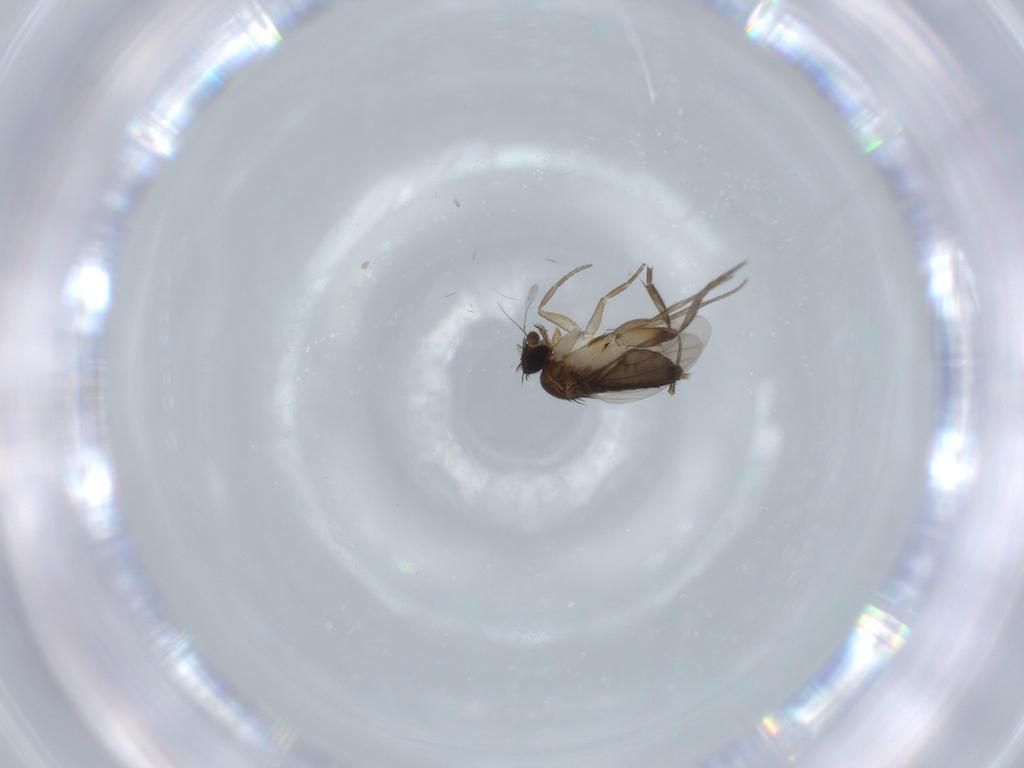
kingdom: Animalia
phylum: Arthropoda
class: Insecta
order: Diptera
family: Phoridae
